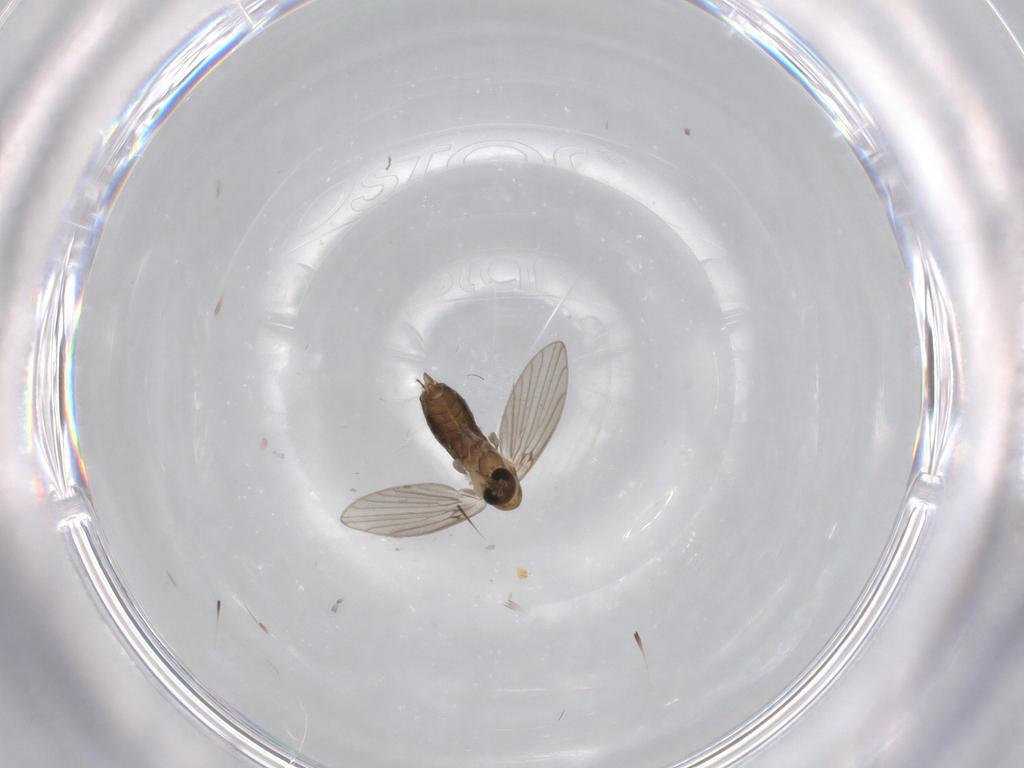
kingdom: Animalia
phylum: Arthropoda
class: Insecta
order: Diptera
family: Psychodidae
